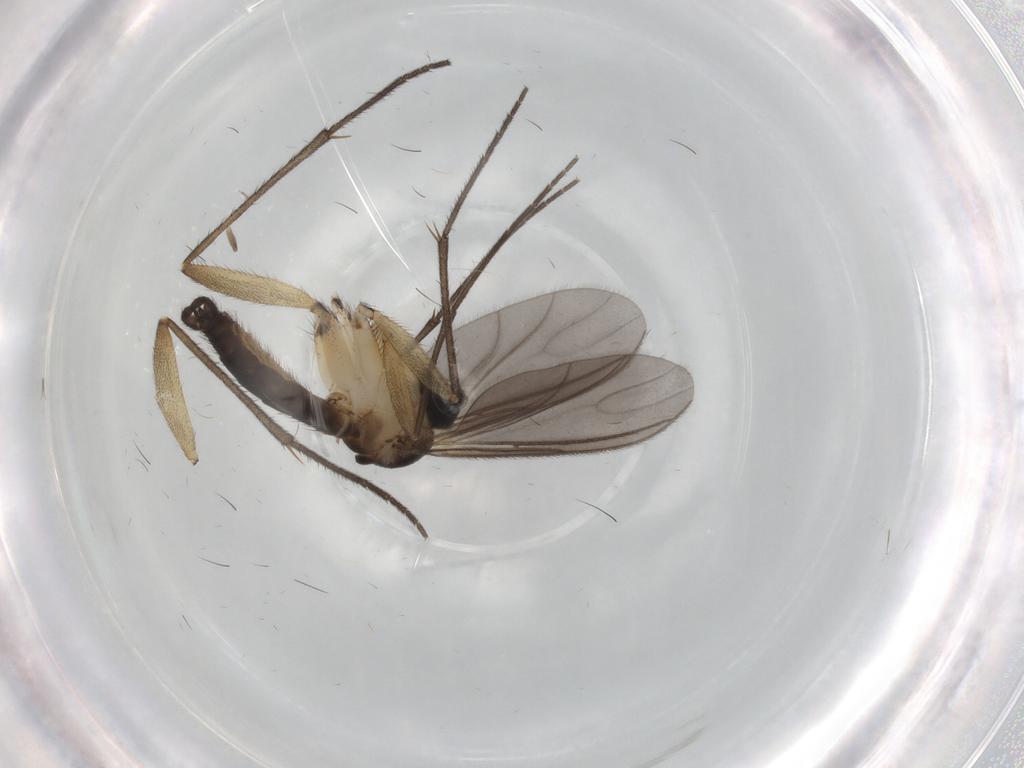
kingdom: Animalia
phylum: Arthropoda
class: Insecta
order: Diptera
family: Sciaridae
